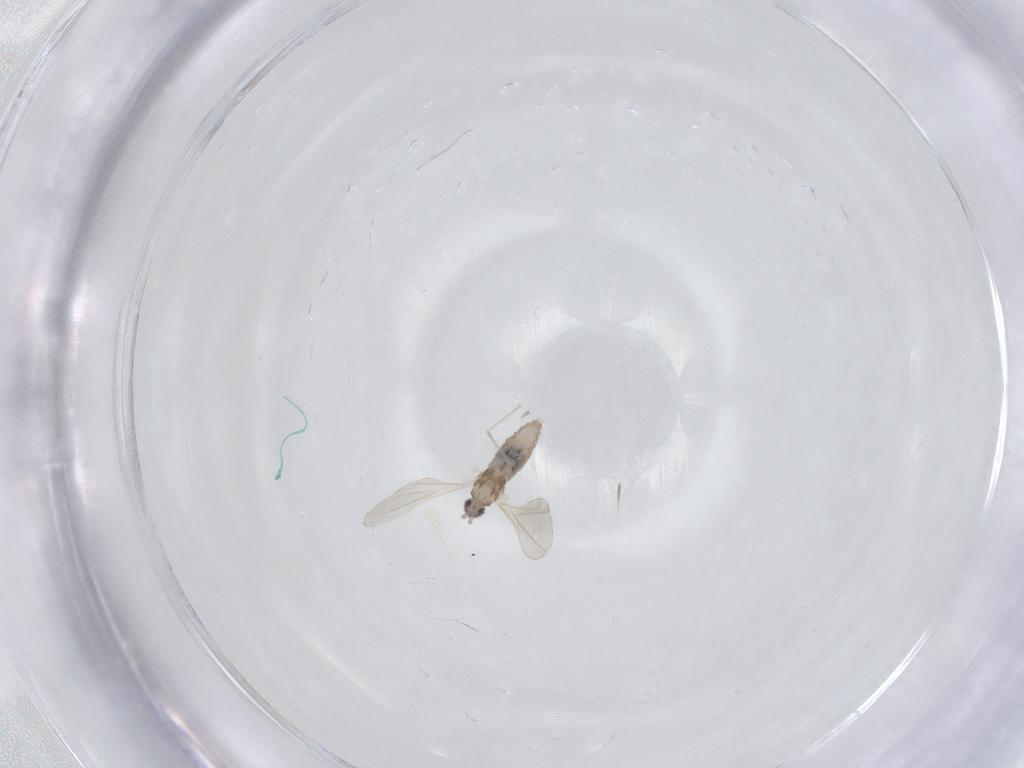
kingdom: Animalia
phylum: Arthropoda
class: Insecta
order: Diptera
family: Cecidomyiidae
